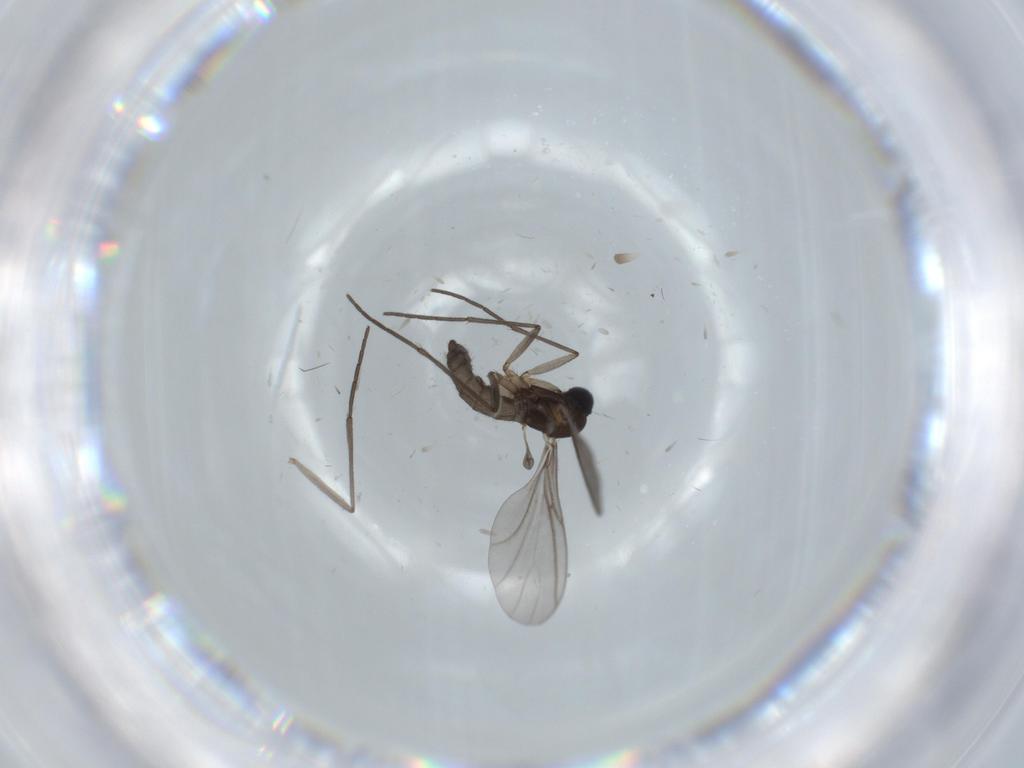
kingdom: Animalia
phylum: Arthropoda
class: Insecta
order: Diptera
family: Sciaridae
